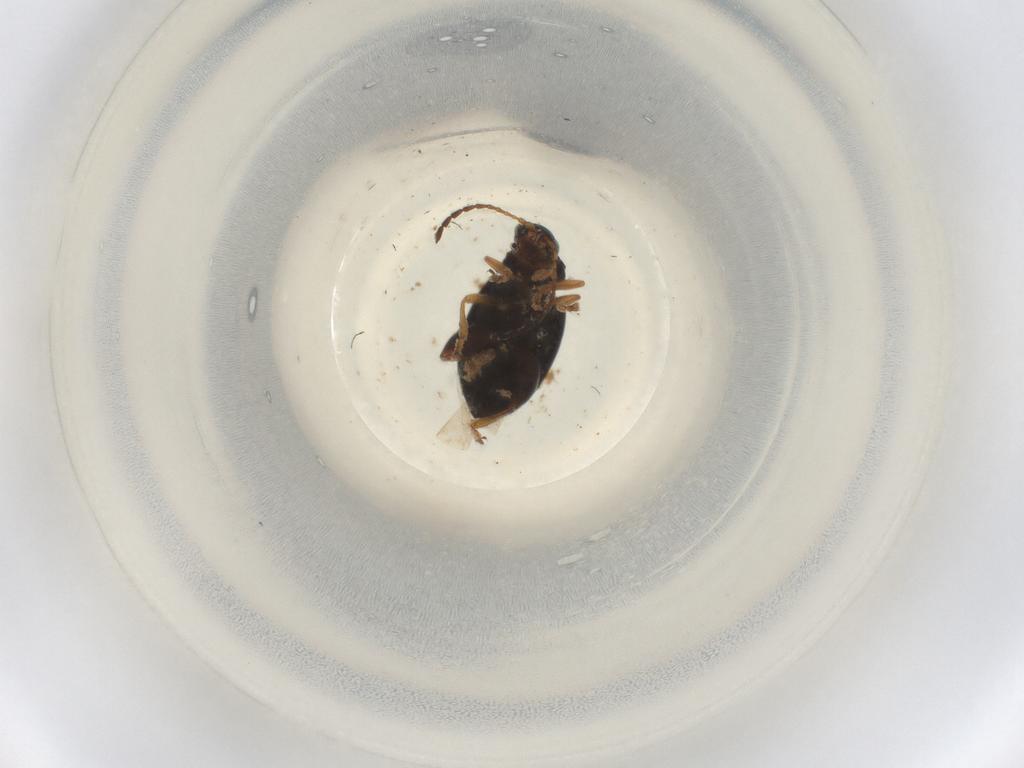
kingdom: Animalia
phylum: Arthropoda
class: Insecta
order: Coleoptera
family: Chrysomelidae
